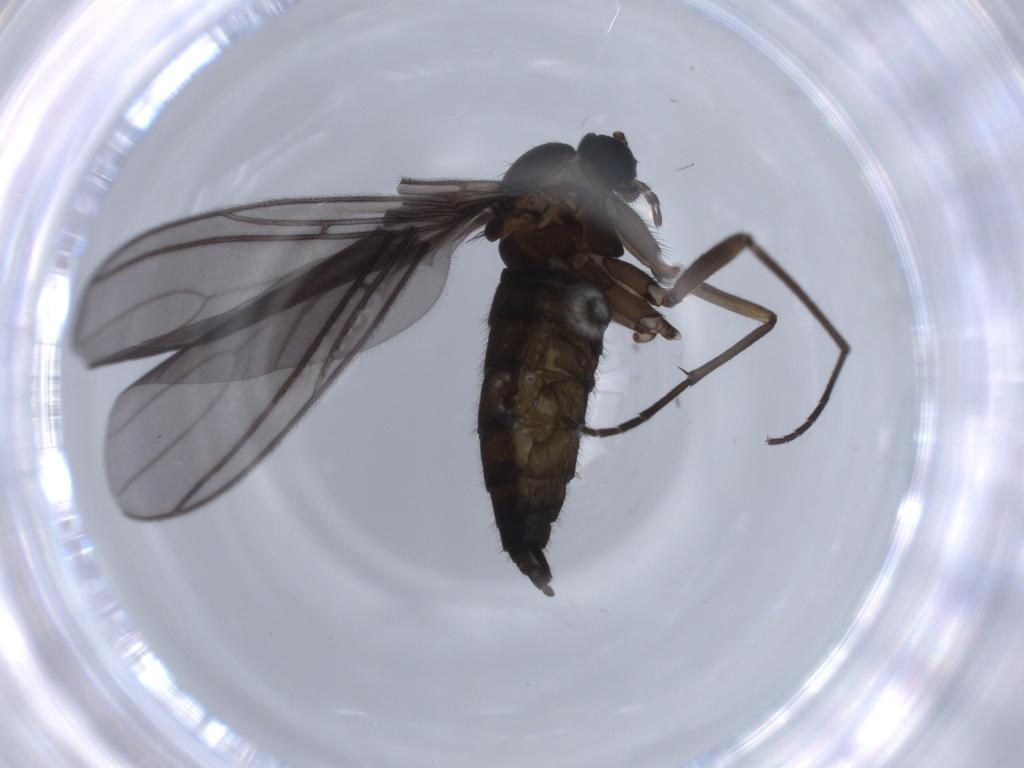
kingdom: Animalia
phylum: Arthropoda
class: Insecta
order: Diptera
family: Sciaridae
